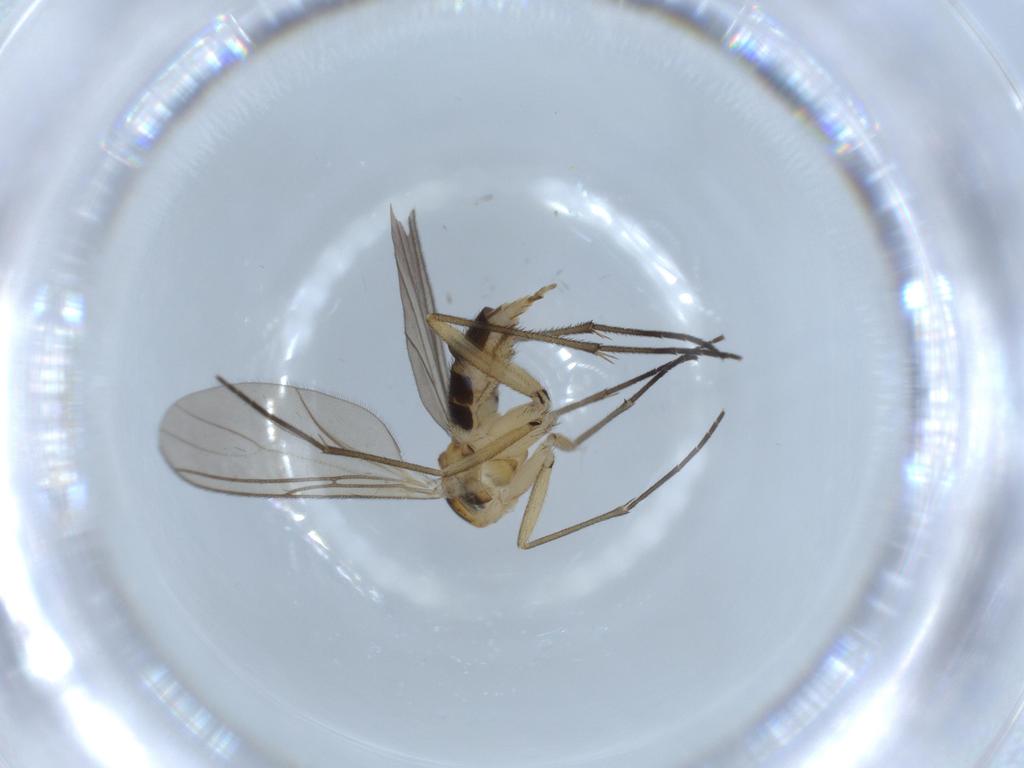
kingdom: Animalia
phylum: Arthropoda
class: Insecta
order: Diptera
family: Sciaridae
